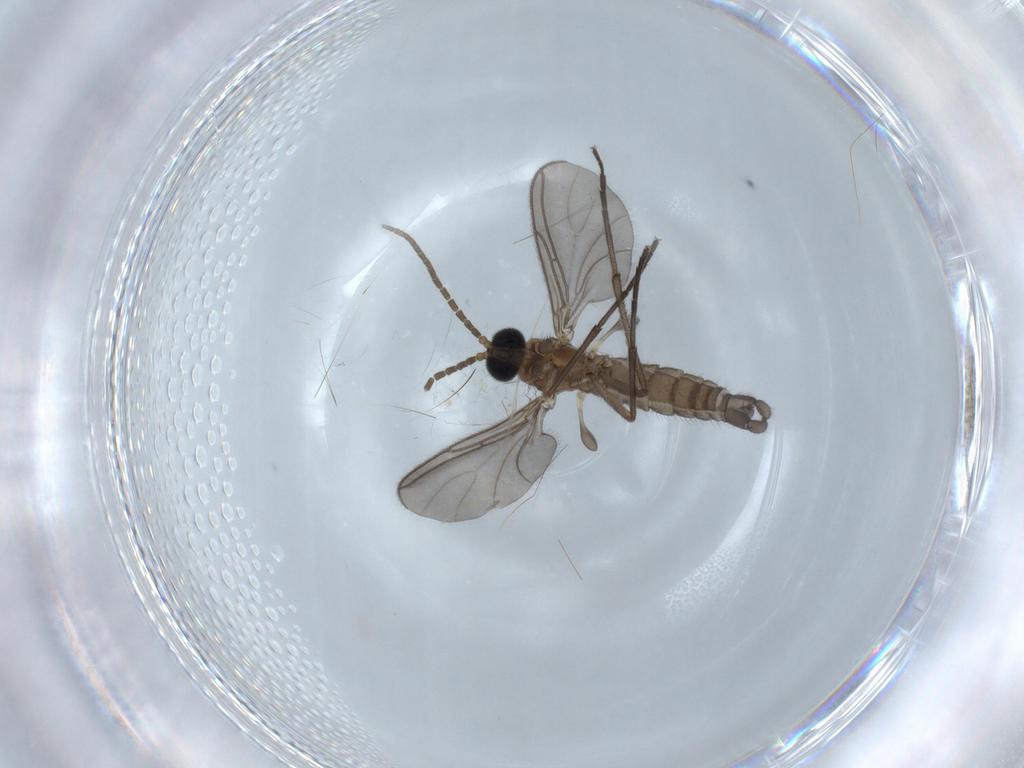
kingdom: Animalia
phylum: Arthropoda
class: Insecta
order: Diptera
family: Sciaridae
